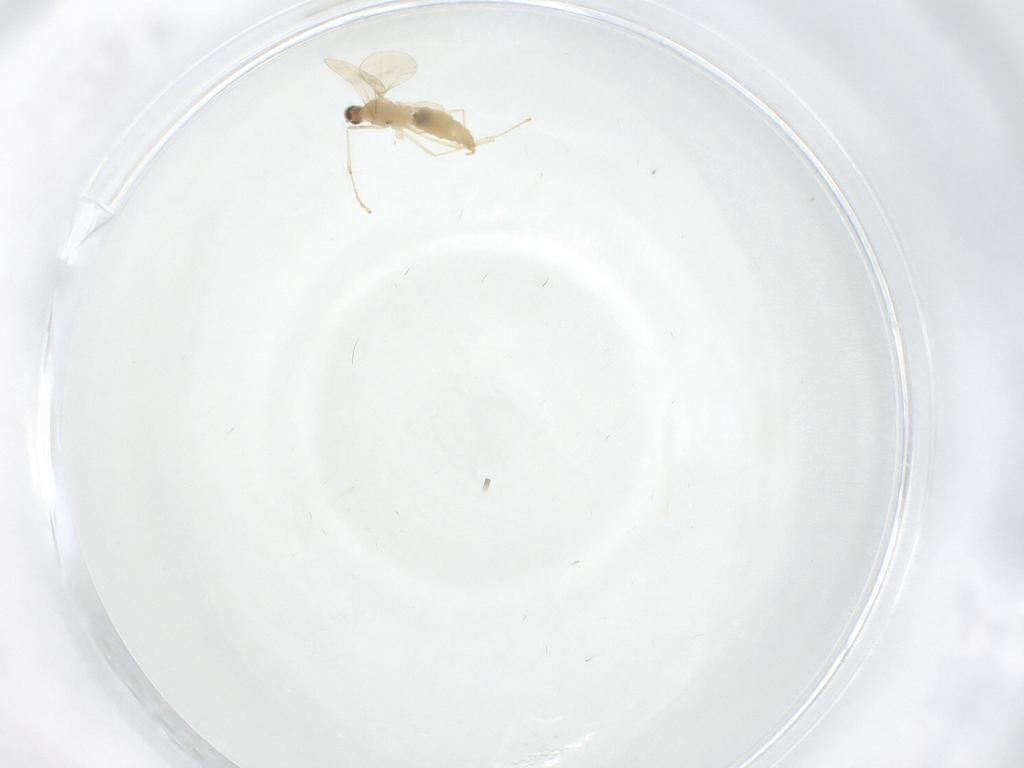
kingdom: Animalia
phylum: Arthropoda
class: Insecta
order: Diptera
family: Cecidomyiidae
